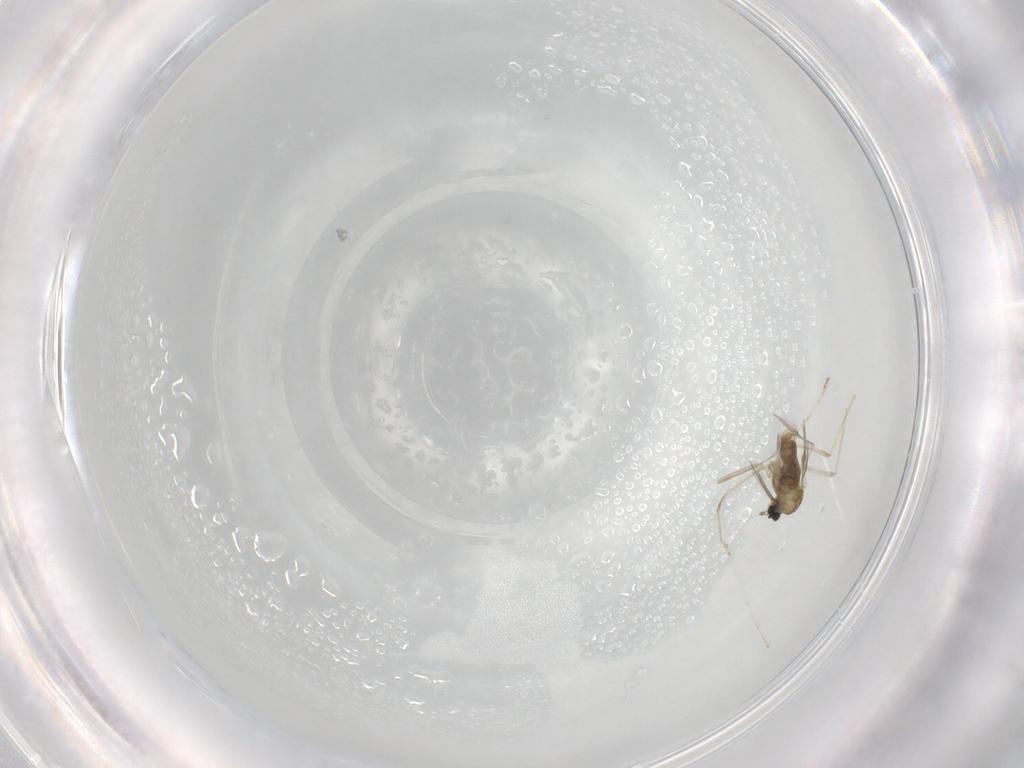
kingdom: Animalia
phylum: Arthropoda
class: Insecta
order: Diptera
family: Cecidomyiidae
